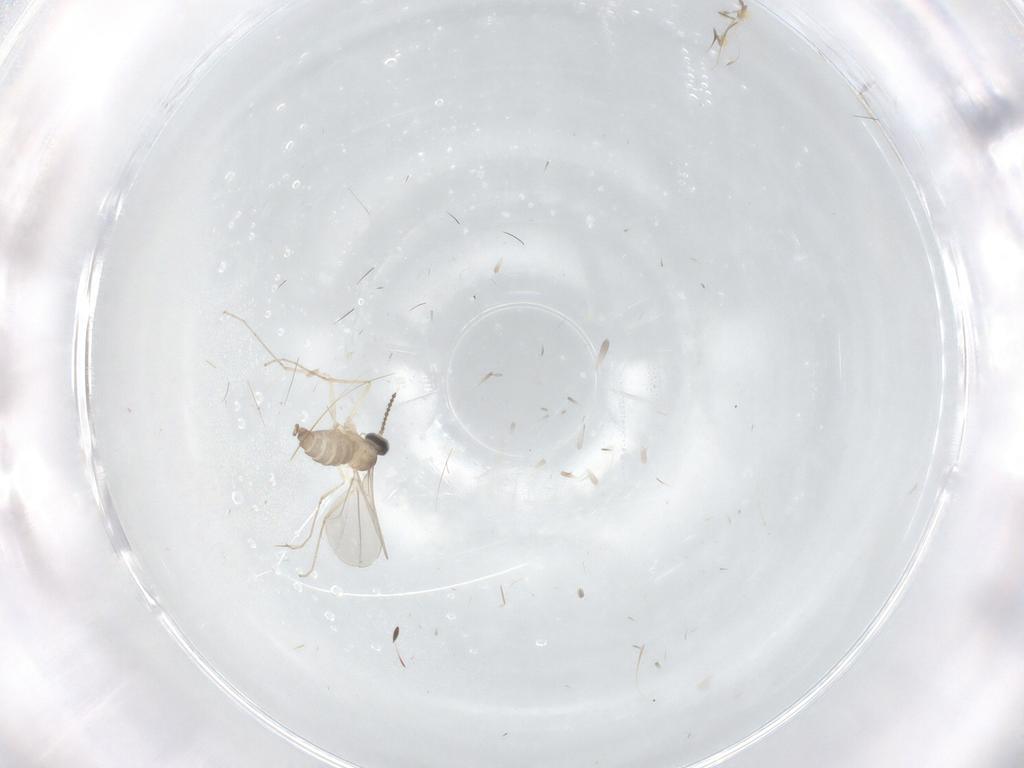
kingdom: Animalia
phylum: Arthropoda
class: Insecta
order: Diptera
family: Cecidomyiidae
